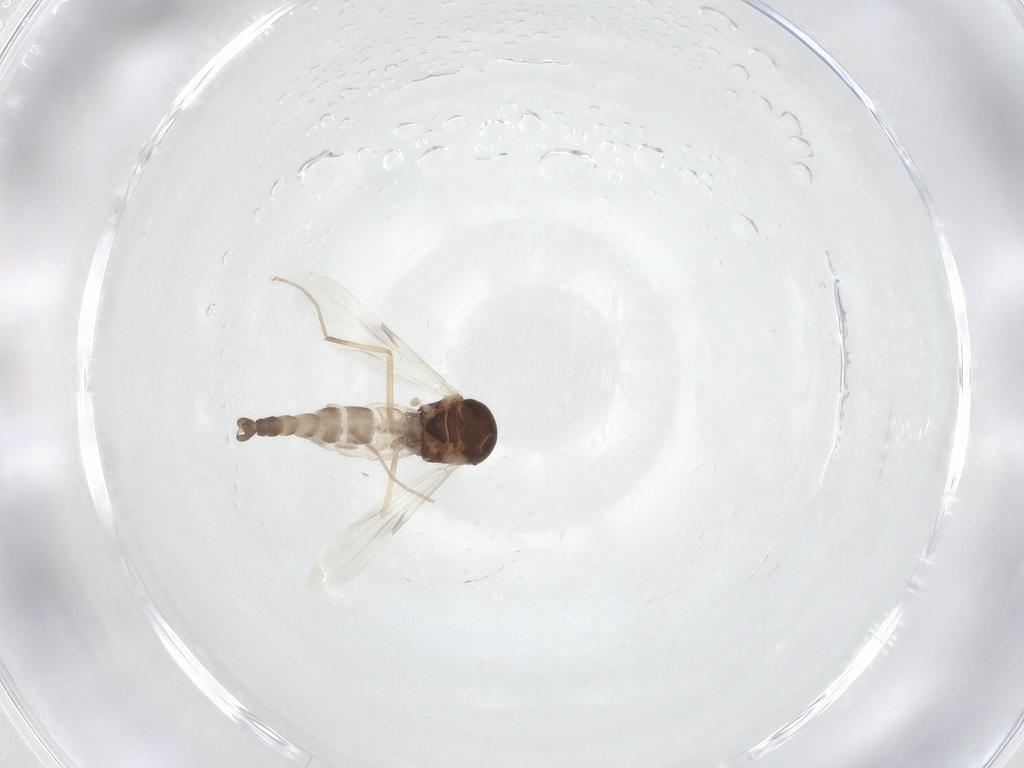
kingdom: Animalia
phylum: Arthropoda
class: Insecta
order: Diptera
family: Ceratopogonidae
